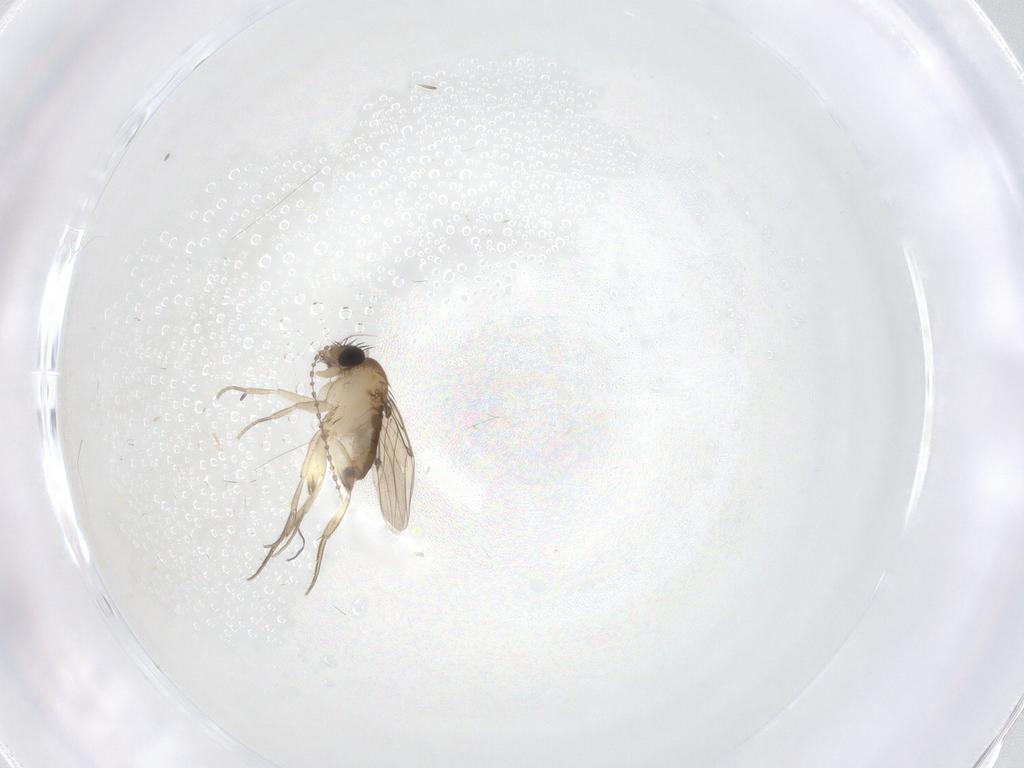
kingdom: Animalia
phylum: Arthropoda
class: Insecta
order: Diptera
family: Phoridae
